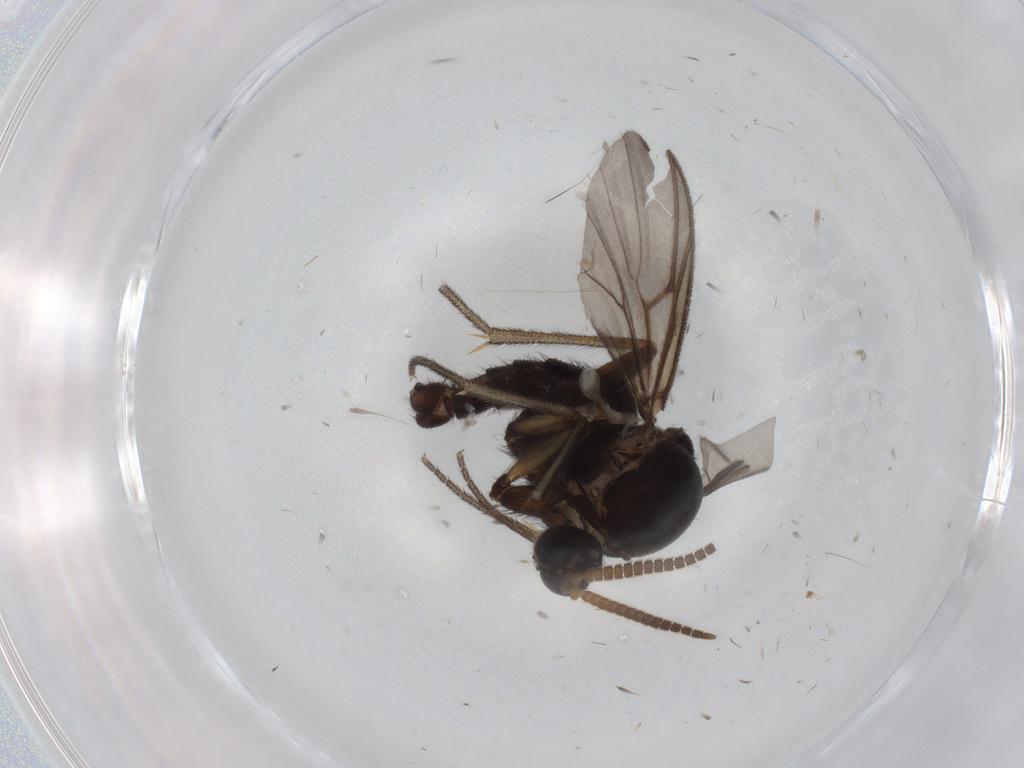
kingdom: Animalia
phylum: Arthropoda
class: Insecta
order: Diptera
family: Mycetophilidae
